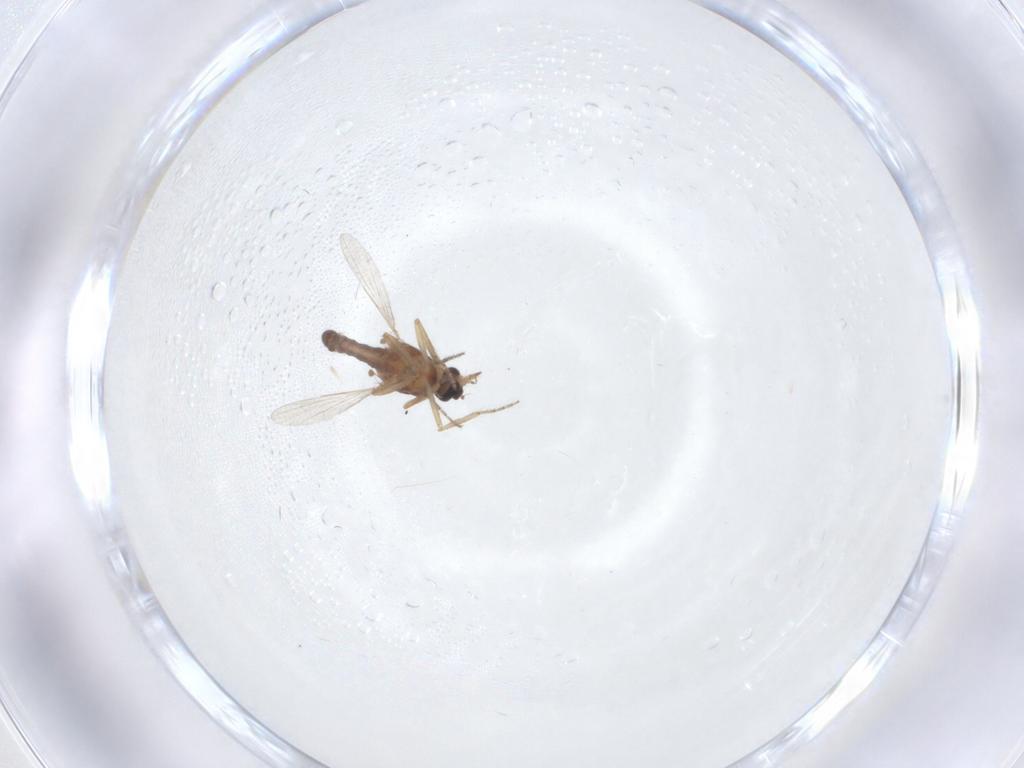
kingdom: Animalia
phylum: Arthropoda
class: Insecta
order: Diptera
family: Ceratopogonidae
